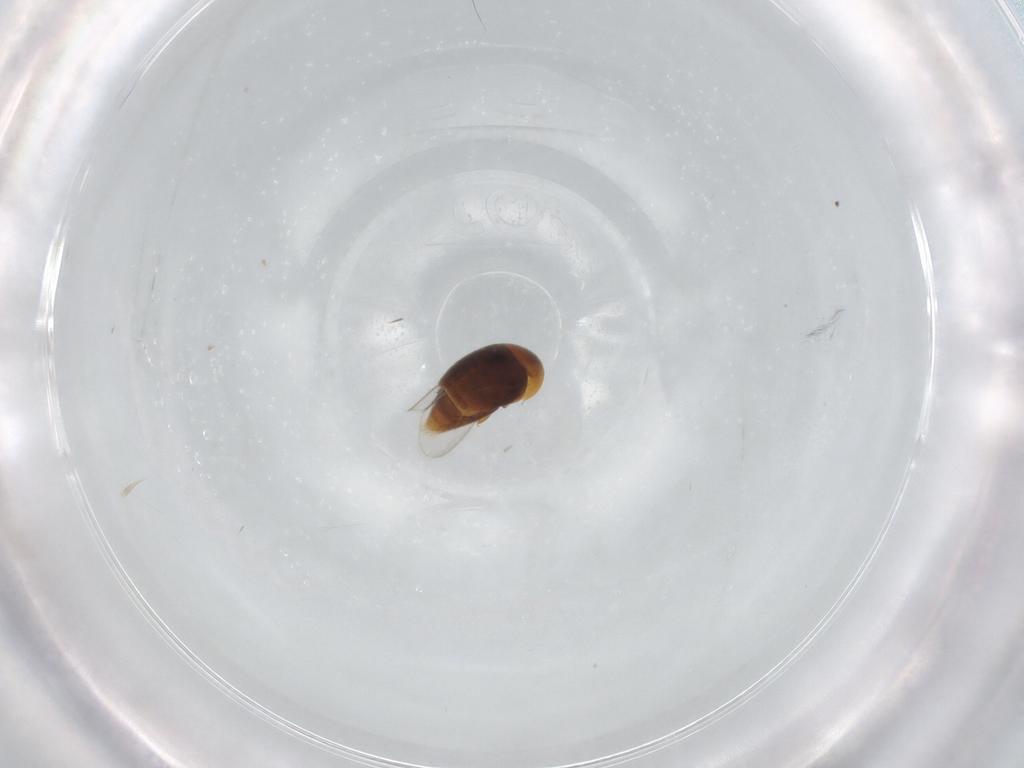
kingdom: Animalia
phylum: Arthropoda
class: Insecta
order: Coleoptera
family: Corylophidae
